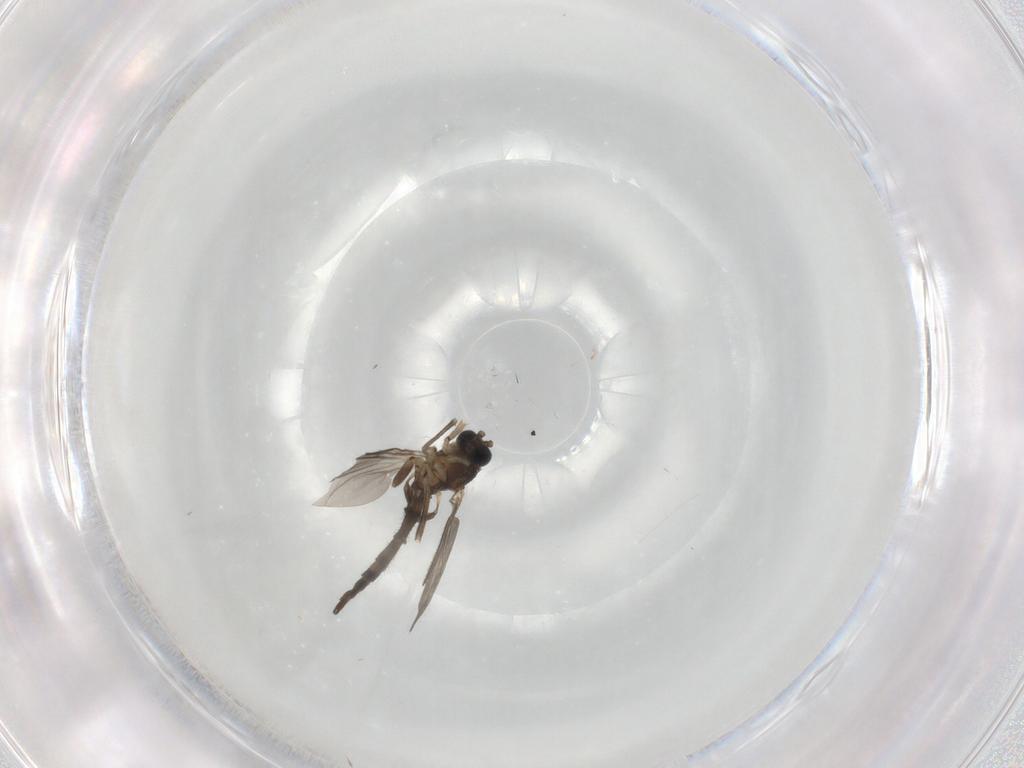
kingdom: Animalia
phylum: Arthropoda
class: Insecta
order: Diptera
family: Sciaridae
